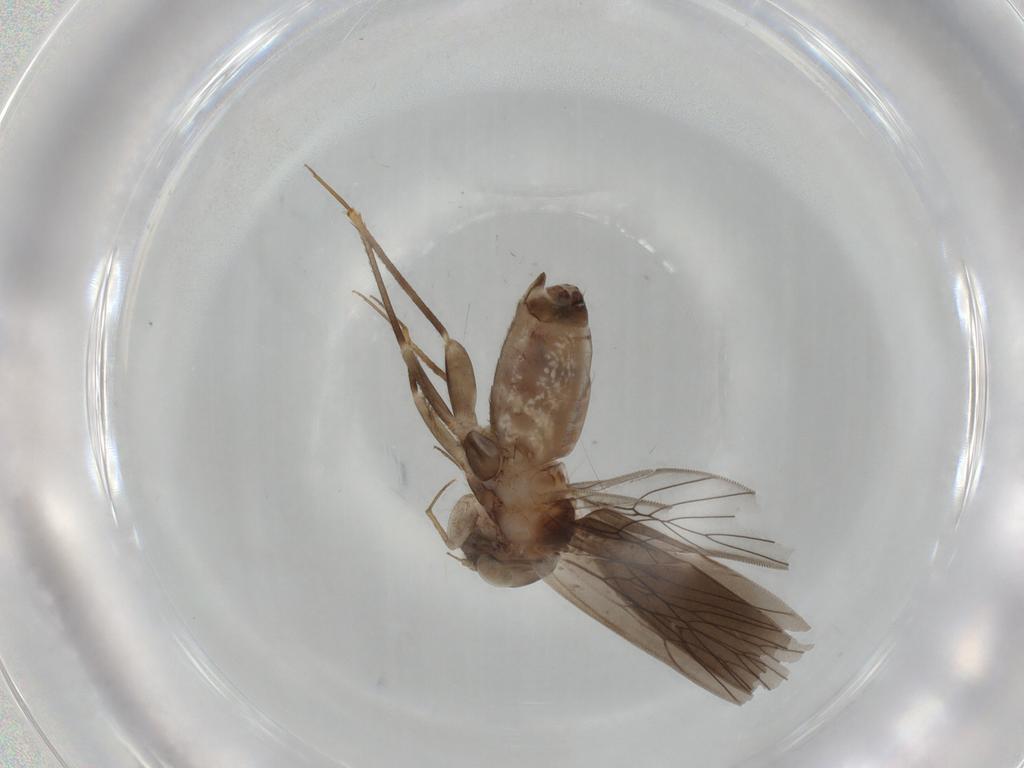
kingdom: Animalia
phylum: Arthropoda
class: Insecta
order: Psocodea
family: Lepidopsocidae
